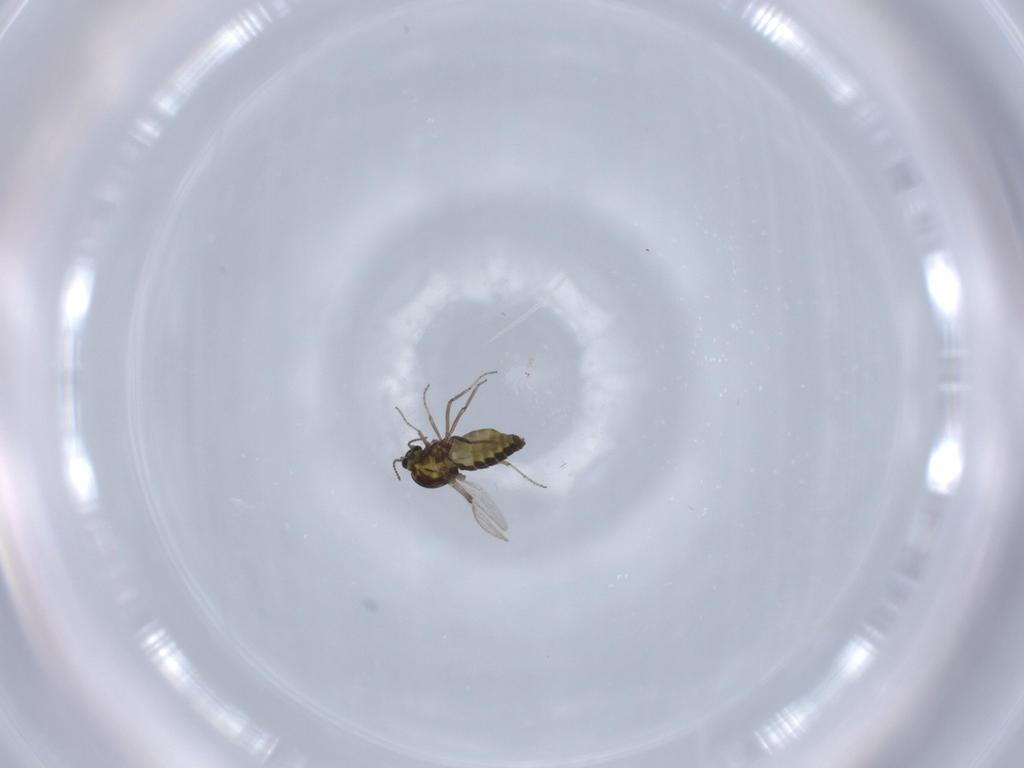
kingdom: Animalia
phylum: Arthropoda
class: Insecta
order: Diptera
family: Ceratopogonidae
